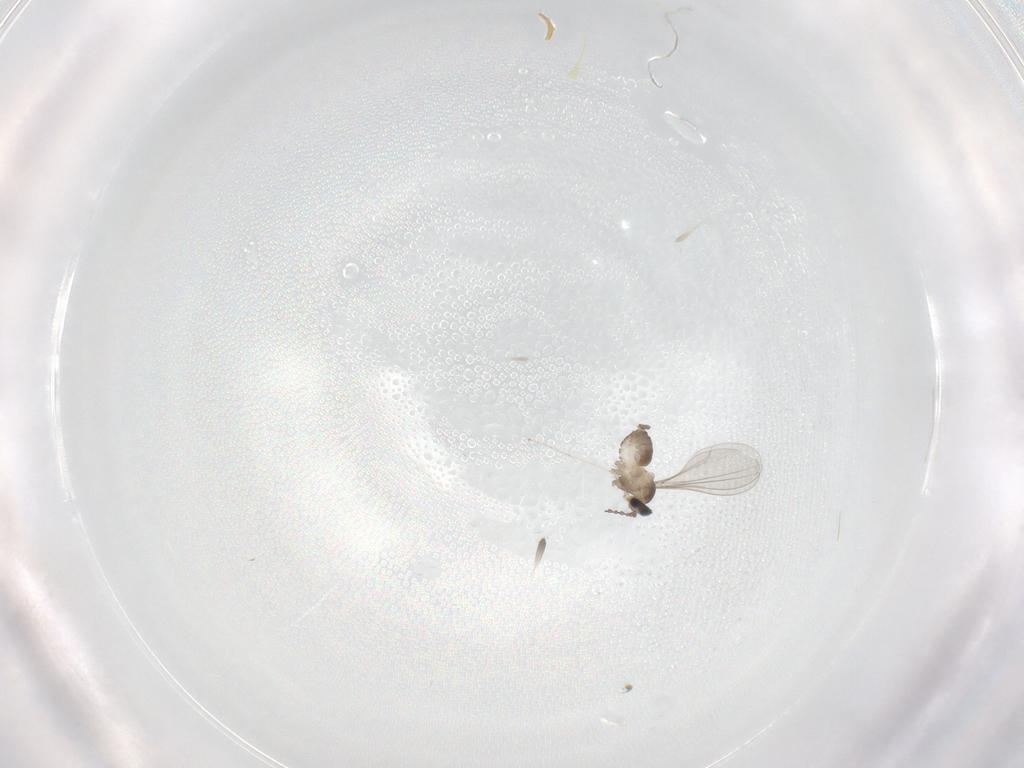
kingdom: Animalia
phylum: Arthropoda
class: Insecta
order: Diptera
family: Cecidomyiidae
